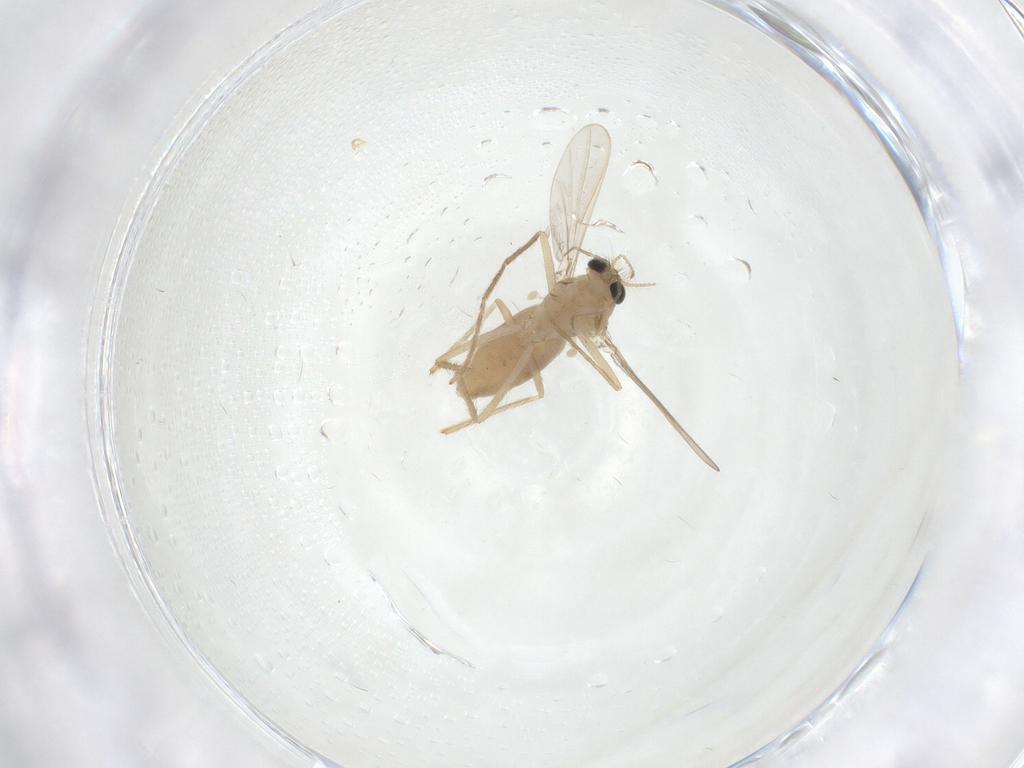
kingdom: Animalia
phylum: Arthropoda
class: Insecta
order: Diptera
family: Chironomidae
